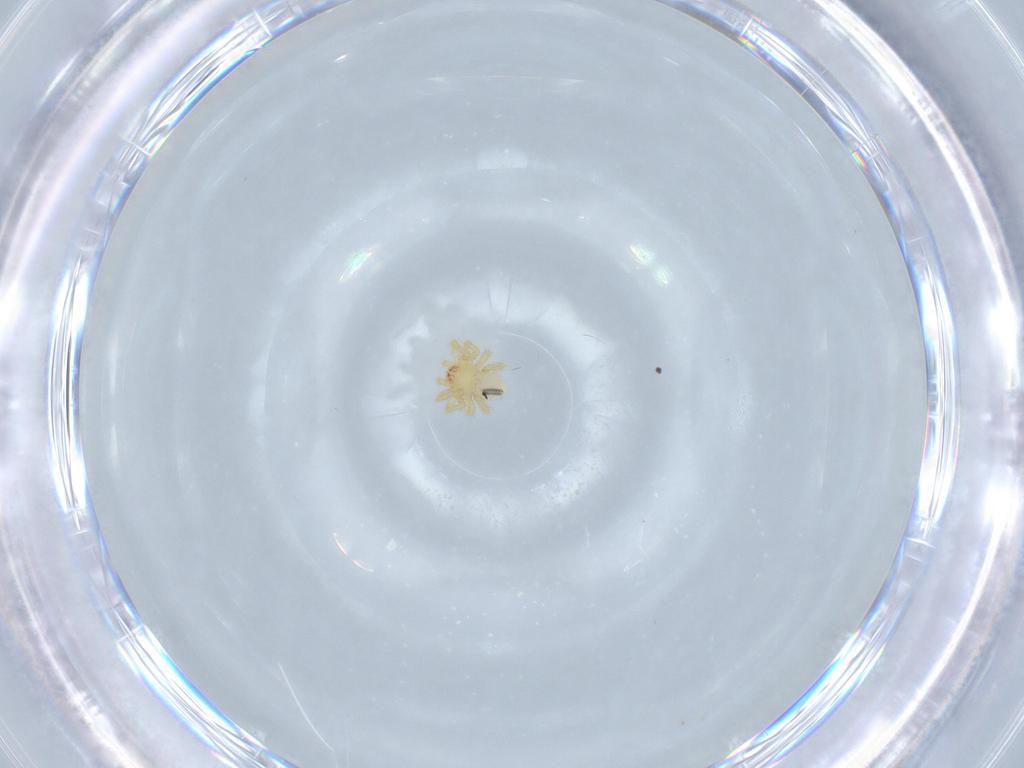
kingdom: Animalia
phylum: Arthropoda
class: Arachnida
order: Araneae
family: Theridiidae
